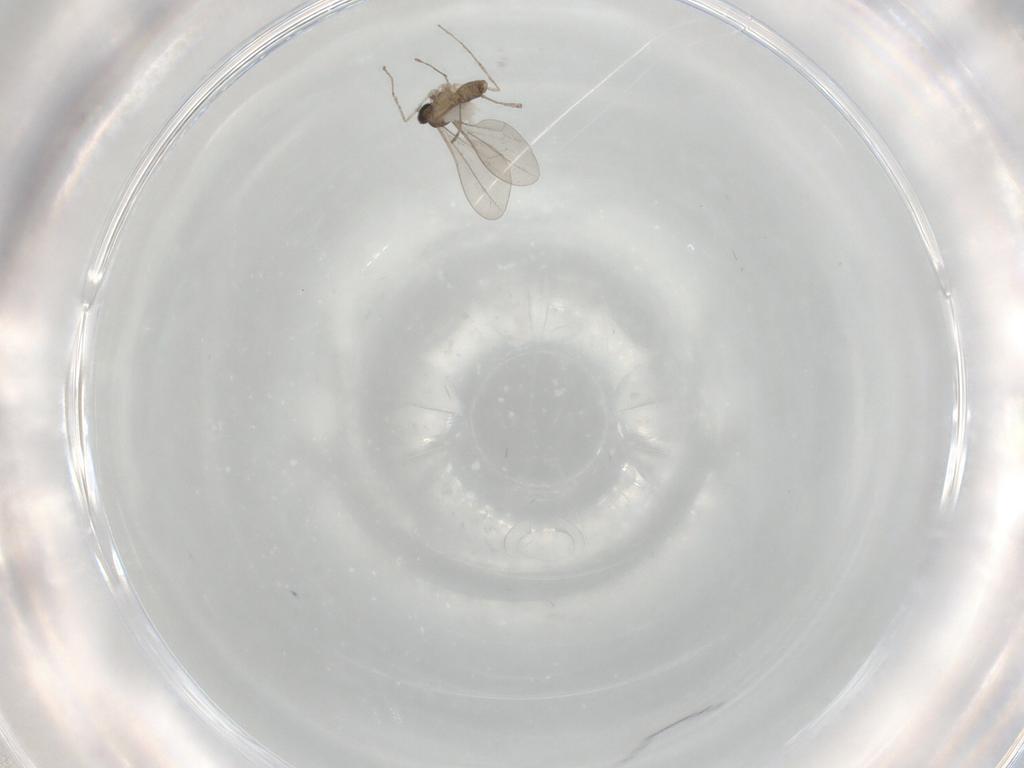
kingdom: Animalia
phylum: Arthropoda
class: Insecta
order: Diptera
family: Cecidomyiidae
